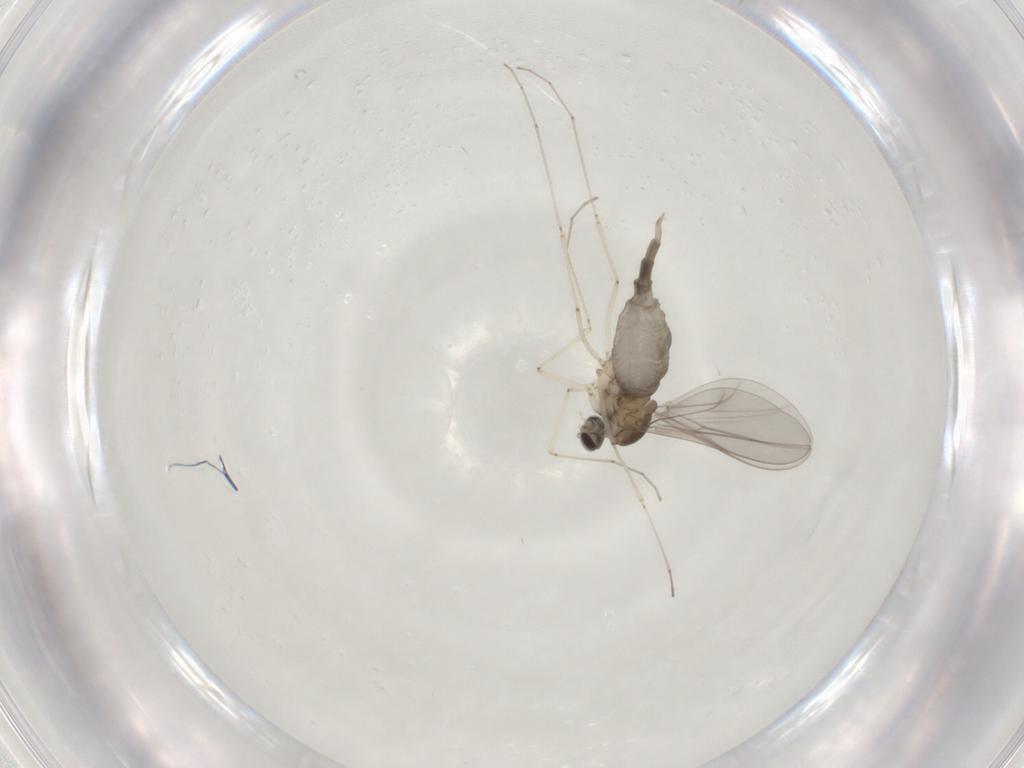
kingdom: Animalia
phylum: Arthropoda
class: Insecta
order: Diptera
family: Cecidomyiidae
